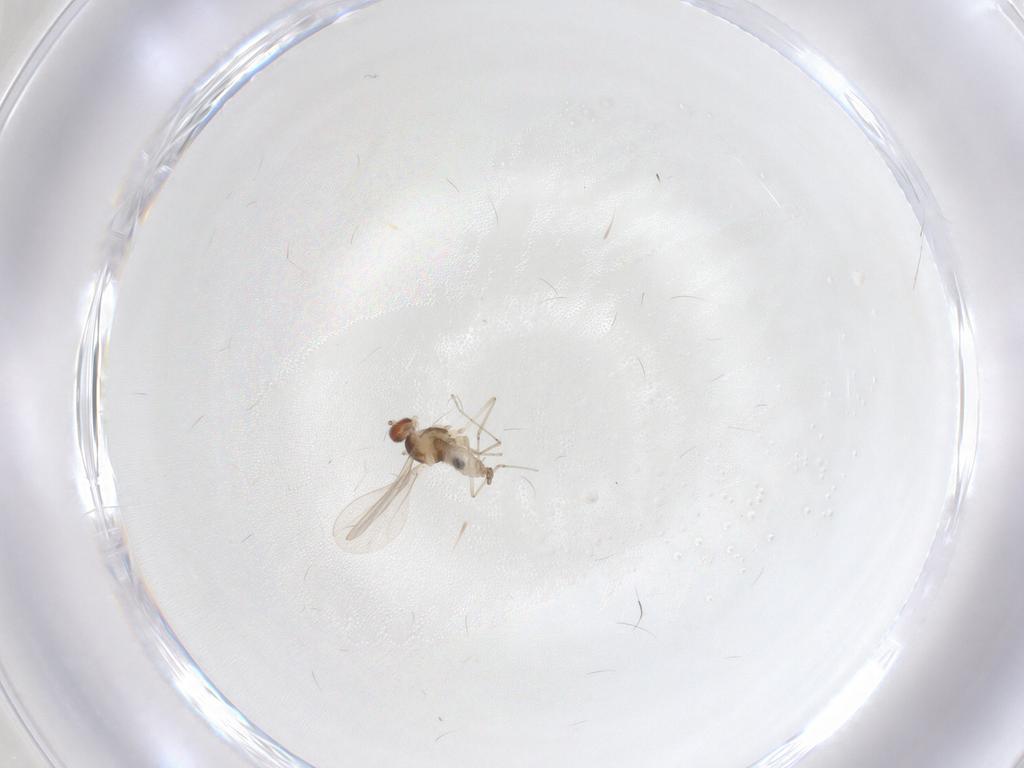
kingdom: Animalia
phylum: Arthropoda
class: Insecta
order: Diptera
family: Cecidomyiidae
